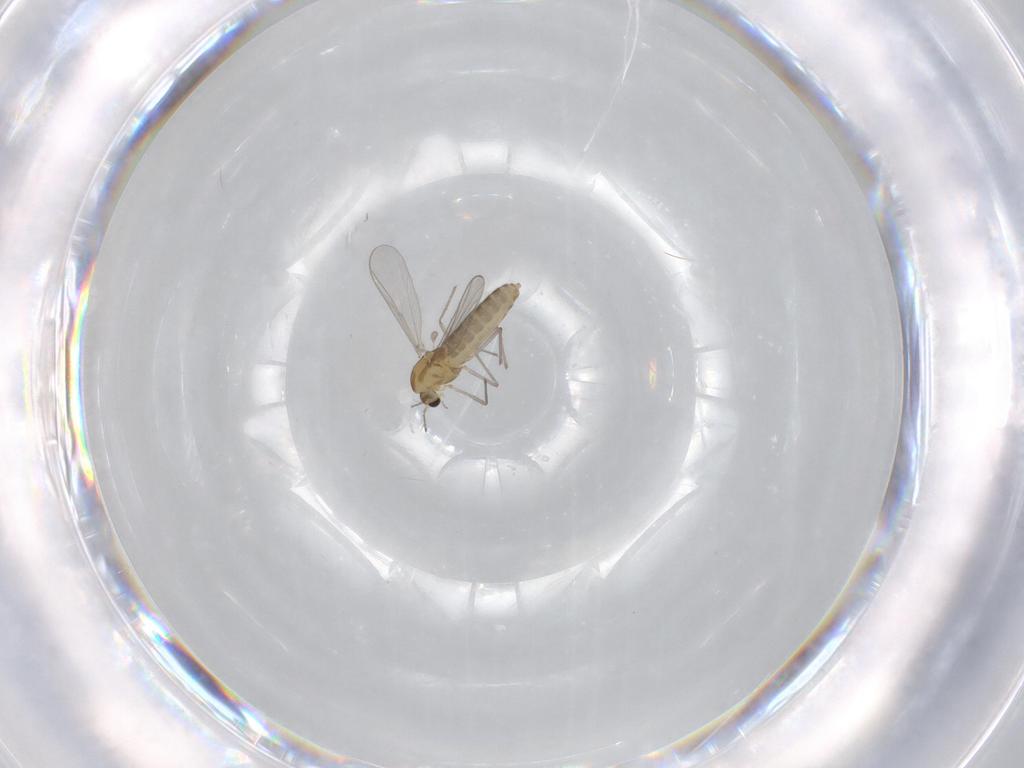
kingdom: Animalia
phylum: Arthropoda
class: Insecta
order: Diptera
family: Chironomidae
